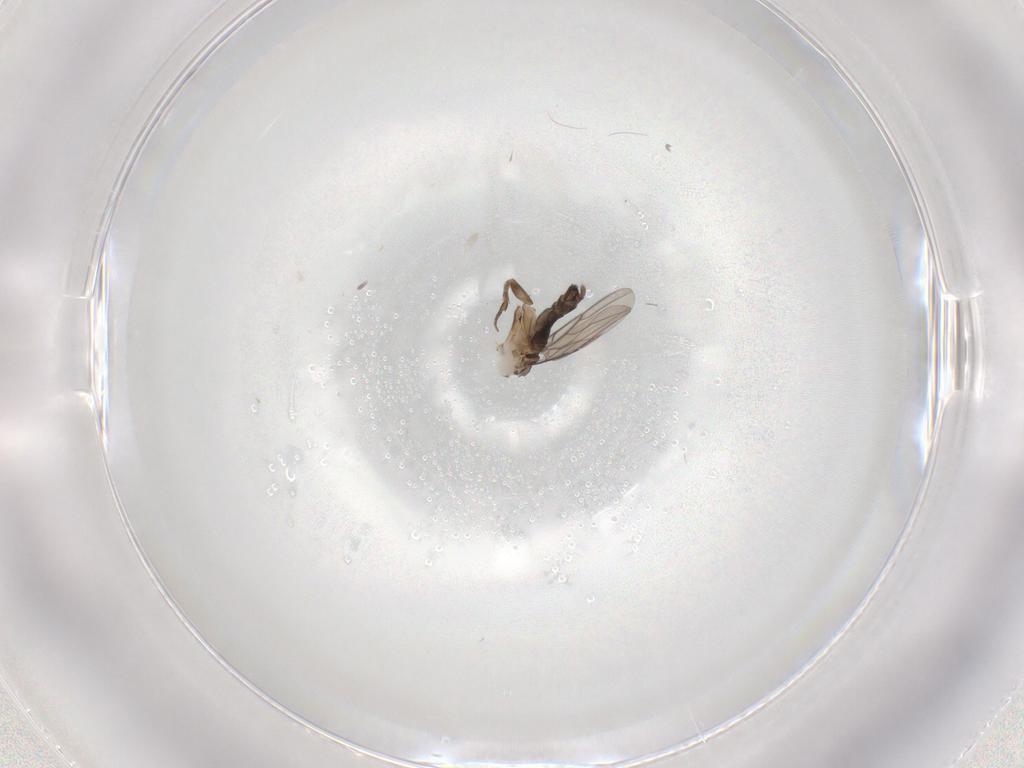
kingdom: Animalia
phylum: Arthropoda
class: Insecta
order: Diptera
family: Phoridae
